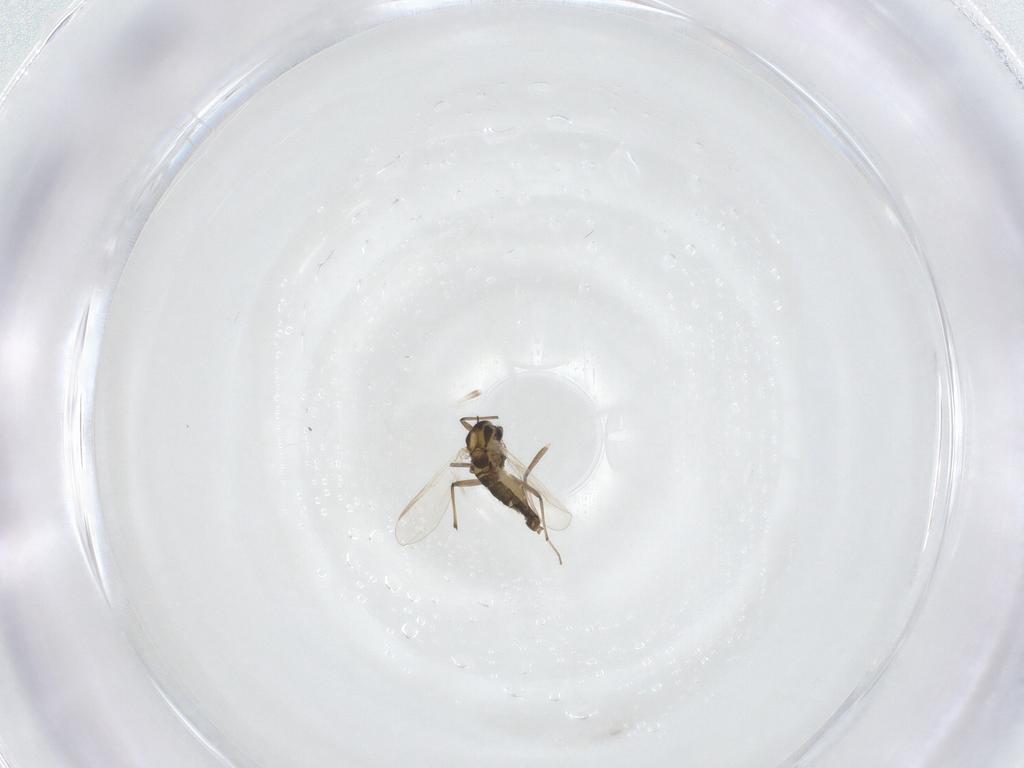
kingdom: Animalia
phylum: Arthropoda
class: Insecta
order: Diptera
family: Chironomidae
